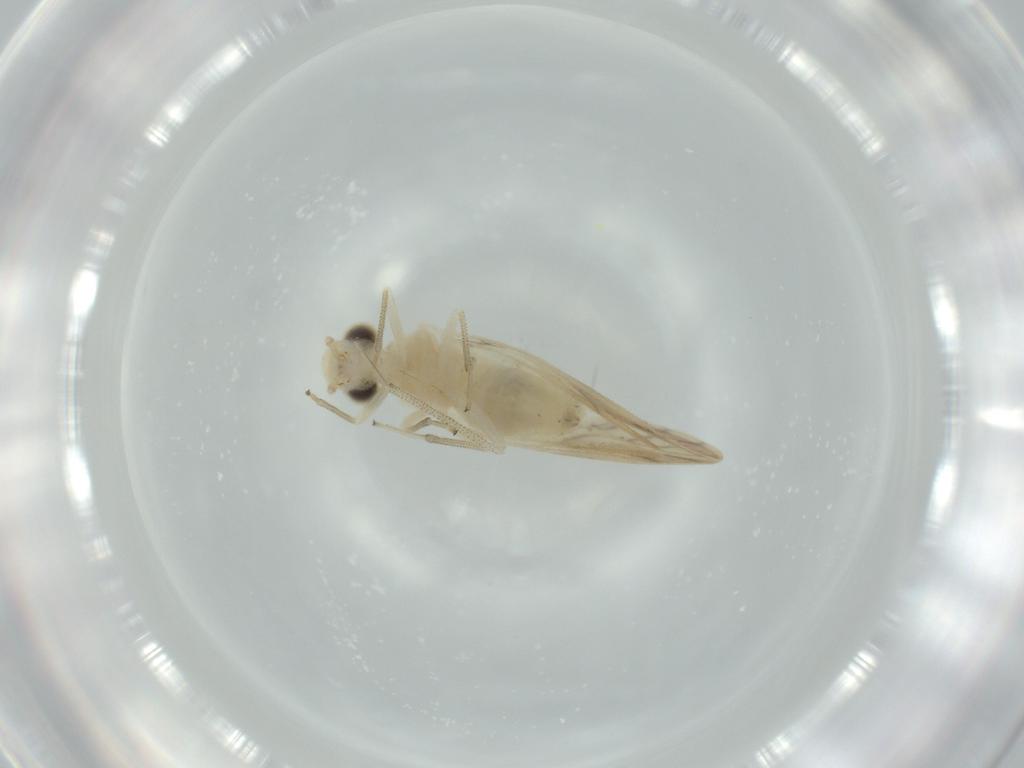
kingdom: Animalia
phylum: Arthropoda
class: Insecta
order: Psocodea
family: Caeciliusidae
